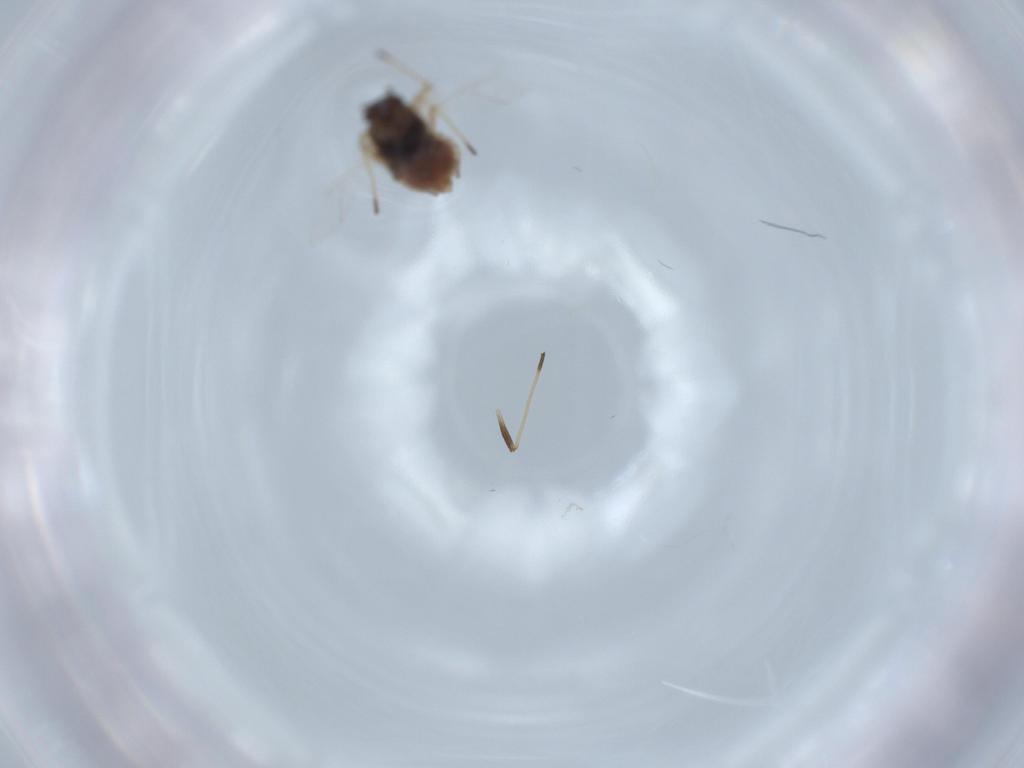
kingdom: Animalia
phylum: Arthropoda
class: Insecta
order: Hemiptera
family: Aphididae
